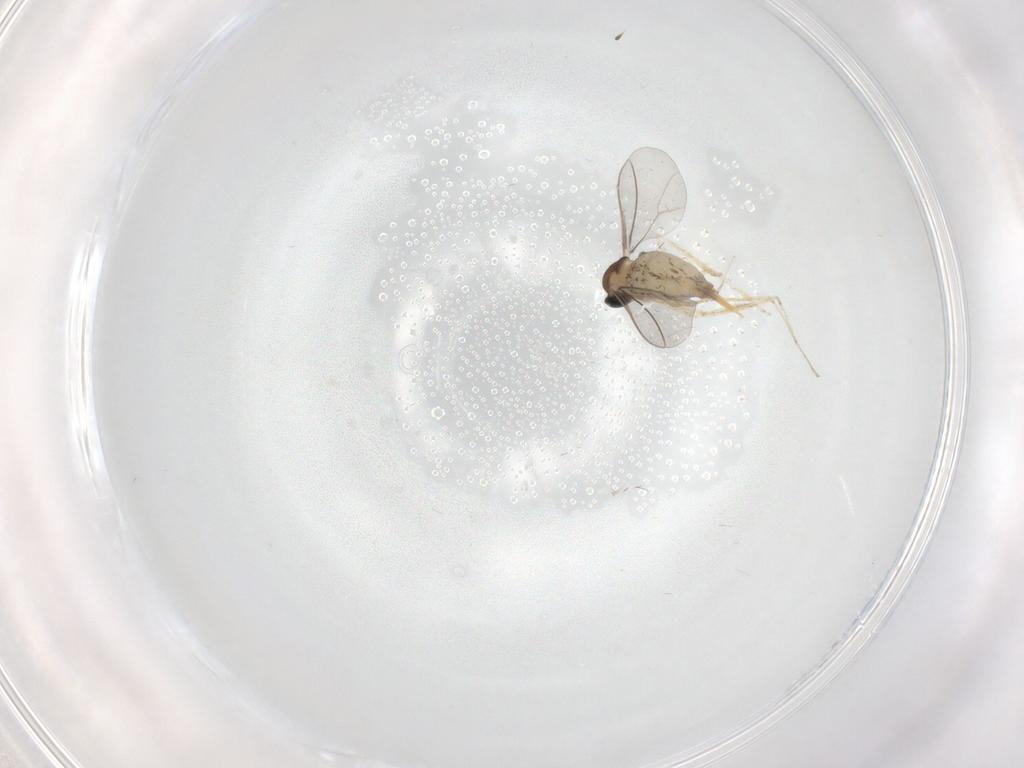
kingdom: Animalia
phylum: Arthropoda
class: Insecta
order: Diptera
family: Cecidomyiidae
